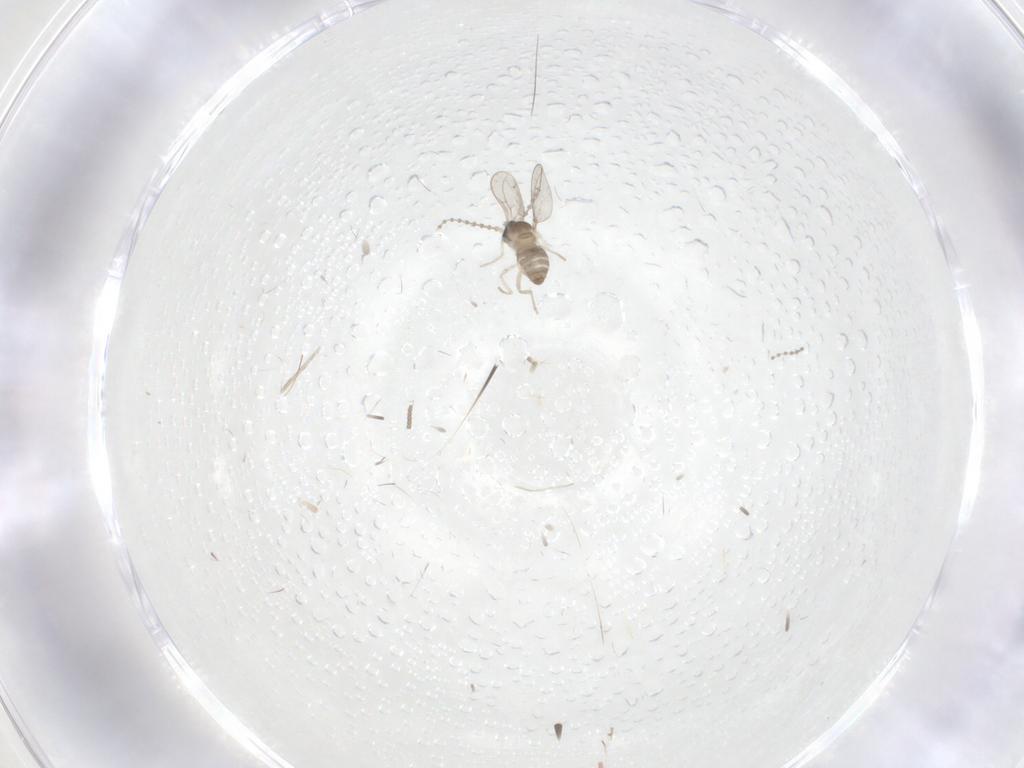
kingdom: Animalia
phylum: Arthropoda
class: Insecta
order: Diptera
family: Cecidomyiidae
